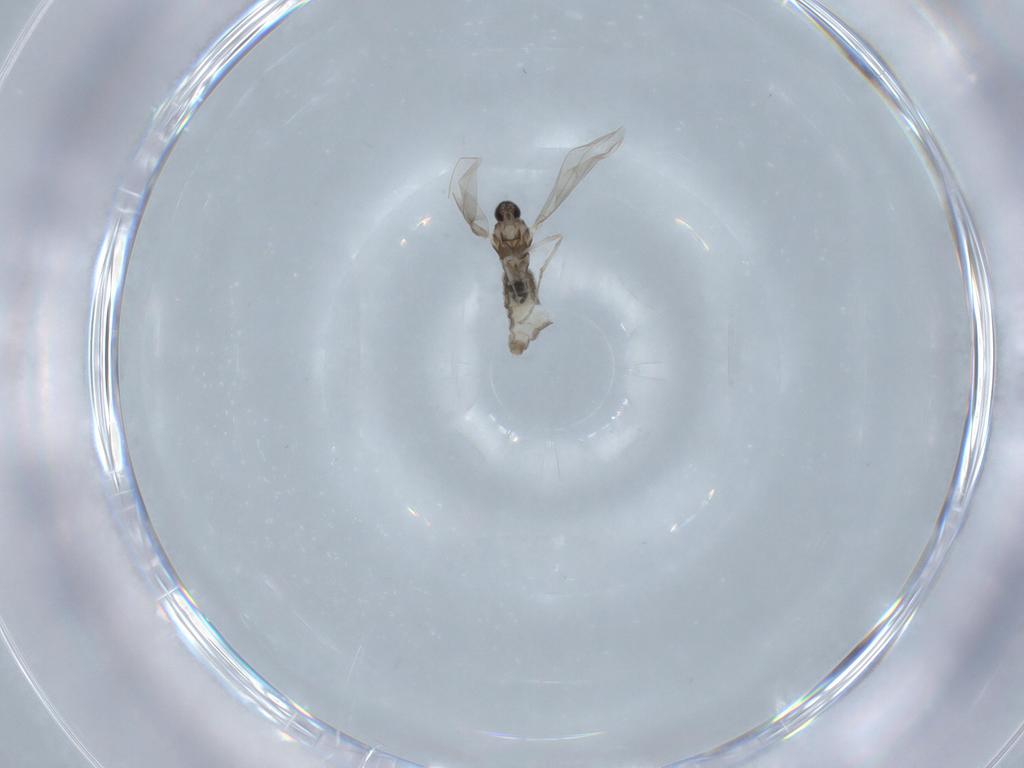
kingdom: Animalia
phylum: Arthropoda
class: Insecta
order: Diptera
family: Cecidomyiidae
